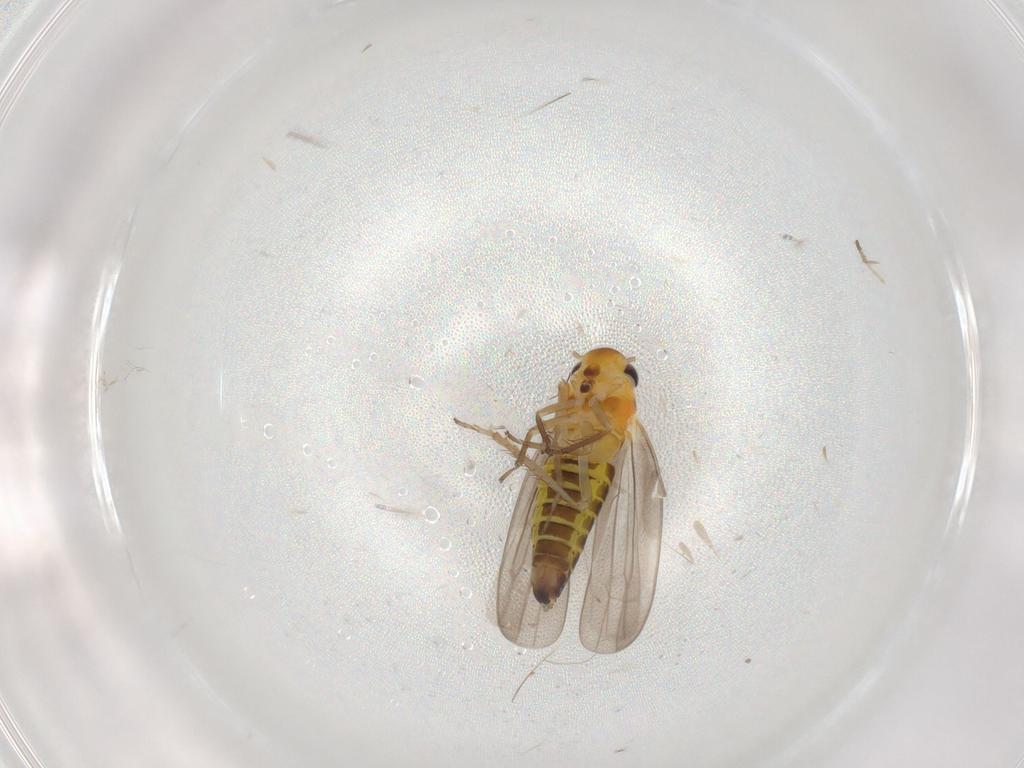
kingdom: Animalia
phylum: Arthropoda
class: Insecta
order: Hemiptera
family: Cicadellidae
